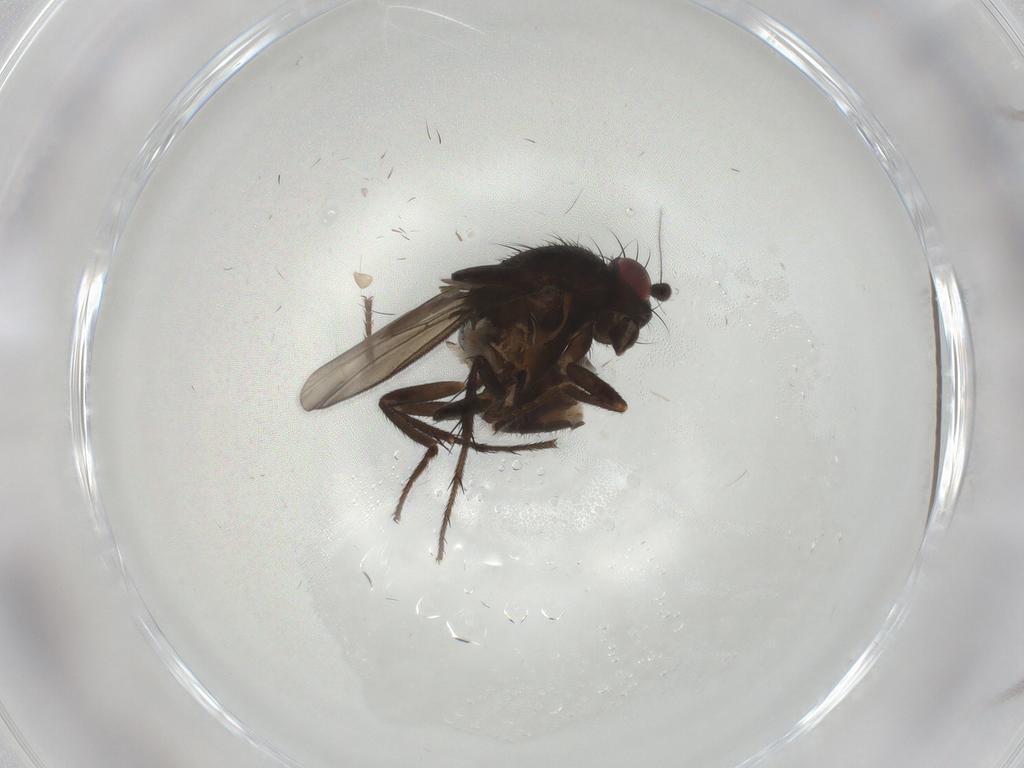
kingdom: Animalia
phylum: Arthropoda
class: Insecta
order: Diptera
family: Sphaeroceridae
